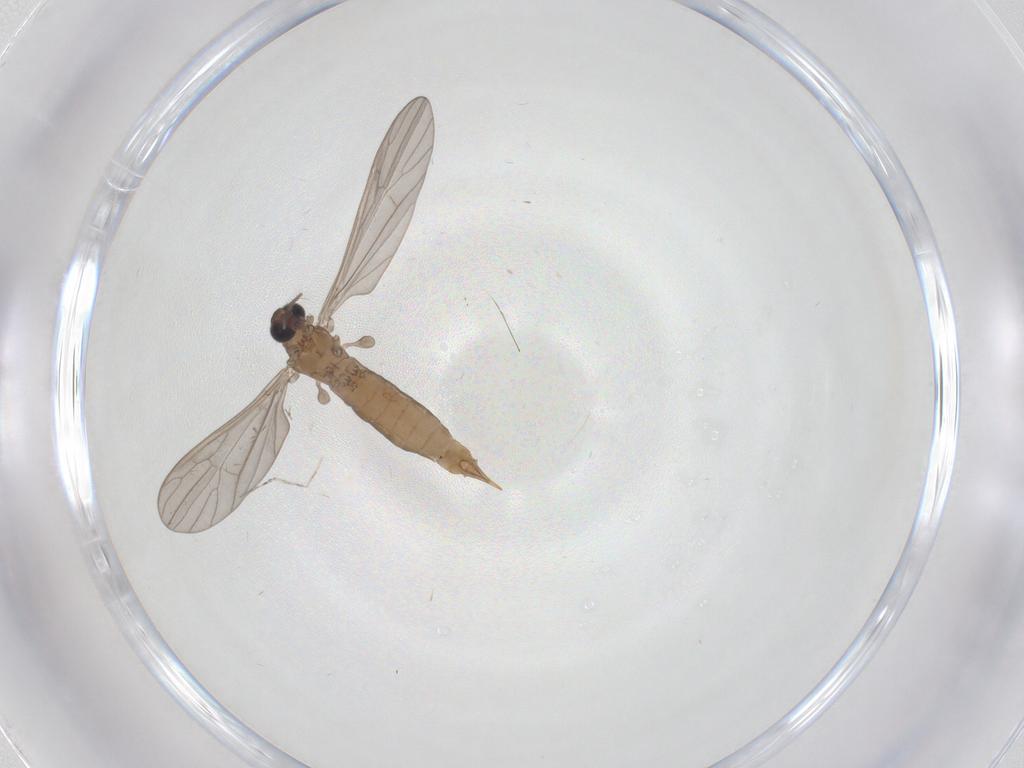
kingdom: Animalia
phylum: Arthropoda
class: Insecta
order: Diptera
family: Limoniidae
